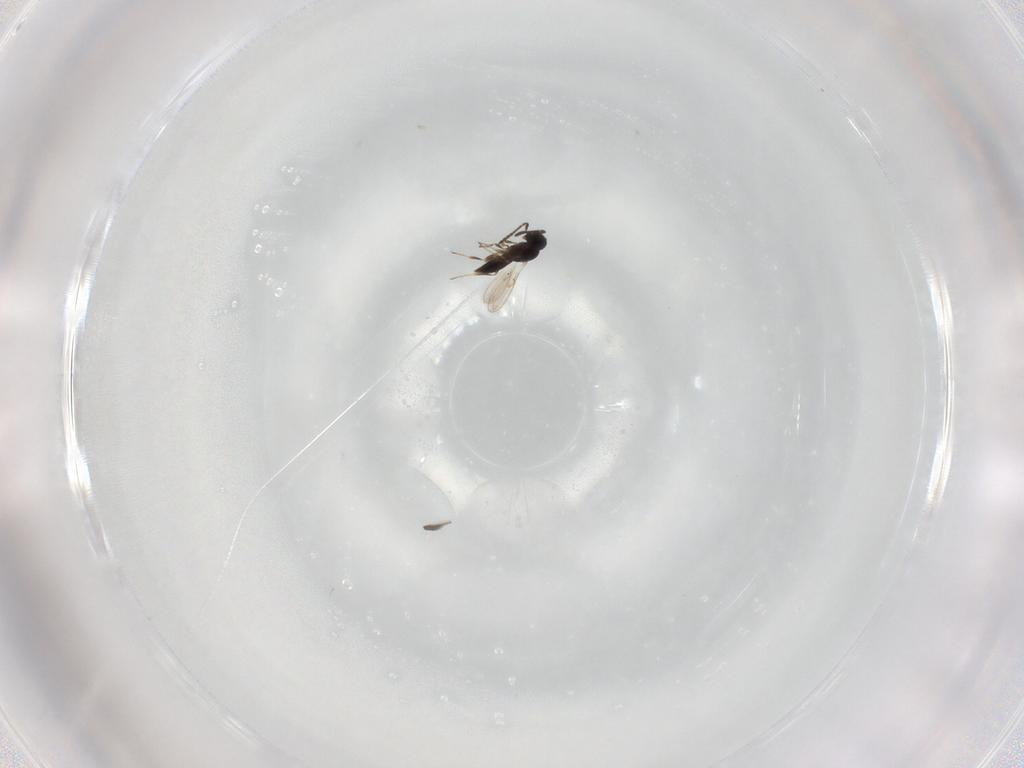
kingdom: Animalia
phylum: Arthropoda
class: Insecta
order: Hymenoptera
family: Scelionidae
